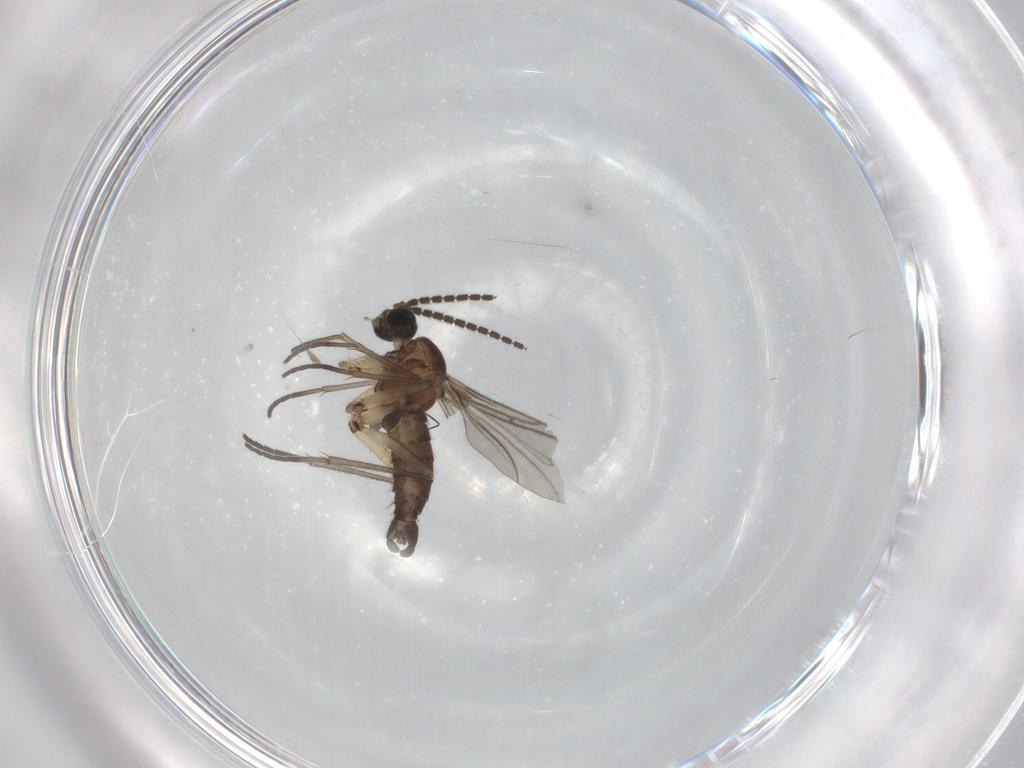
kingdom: Animalia
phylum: Arthropoda
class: Insecta
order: Diptera
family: Sciaridae
